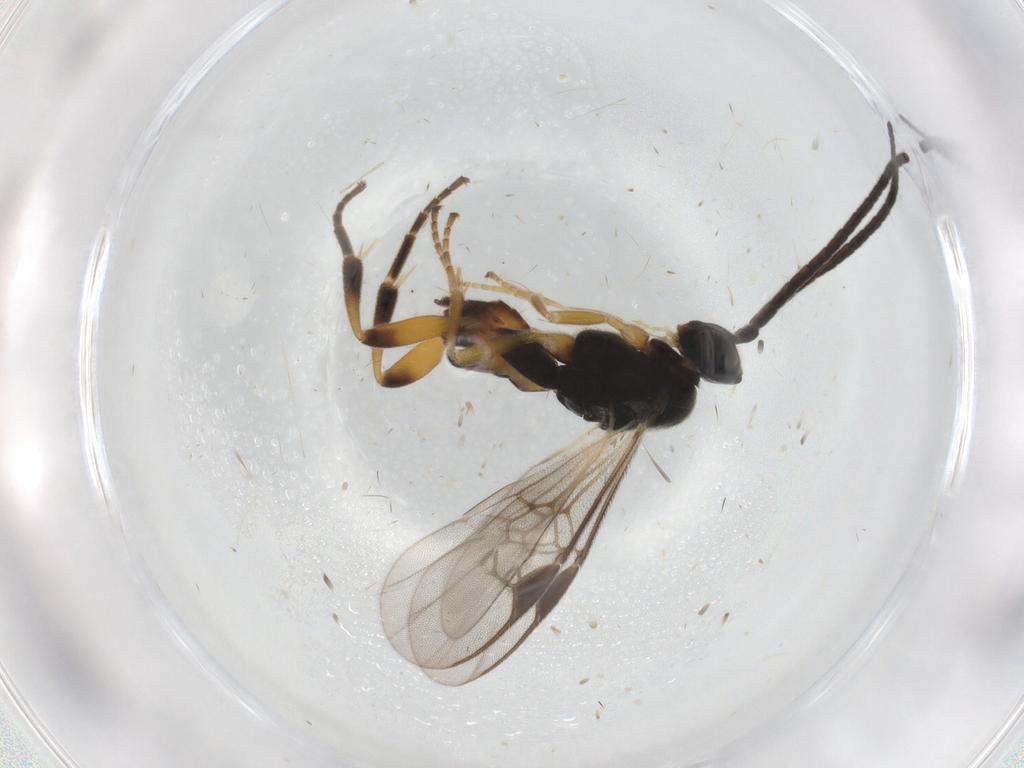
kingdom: Animalia
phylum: Arthropoda
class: Insecta
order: Hymenoptera
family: Braconidae
